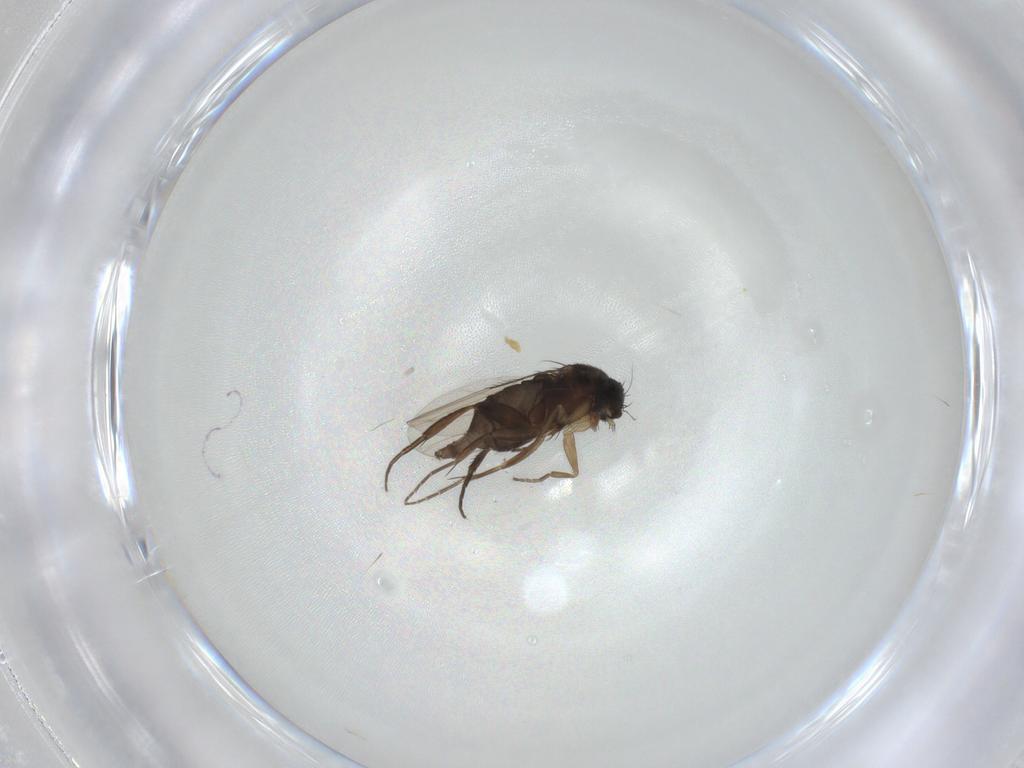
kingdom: Animalia
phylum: Arthropoda
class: Insecta
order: Diptera
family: Phoridae
